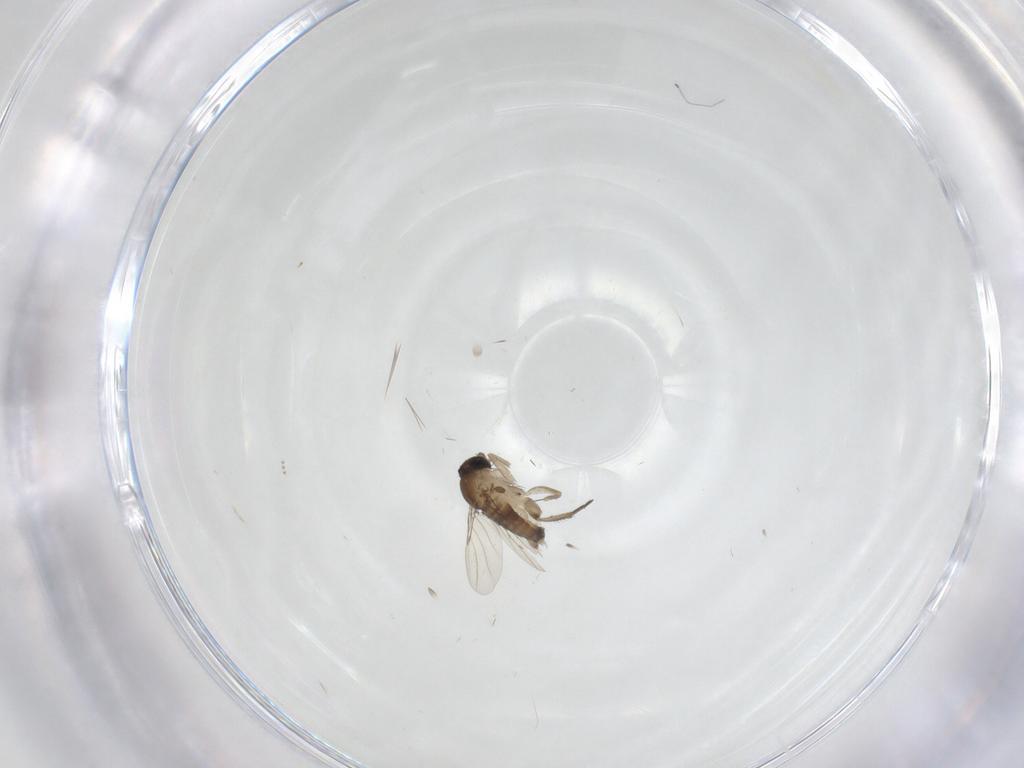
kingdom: Animalia
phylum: Arthropoda
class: Insecta
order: Diptera
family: Phoridae
